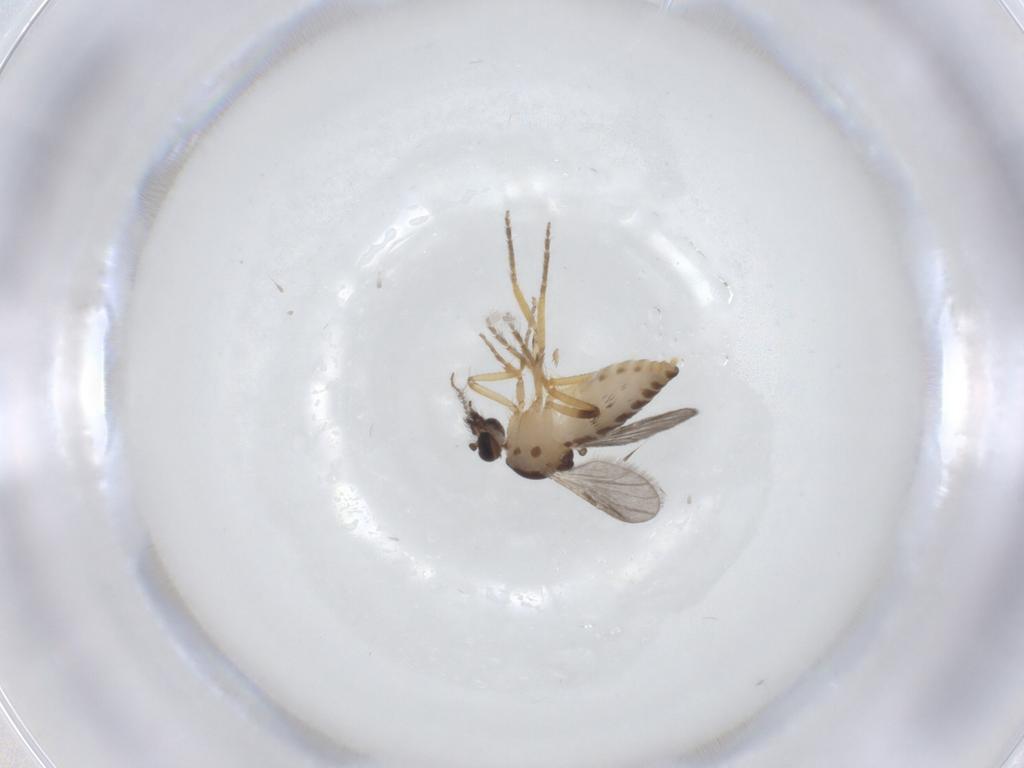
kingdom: Animalia
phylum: Arthropoda
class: Insecta
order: Diptera
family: Ceratopogonidae
